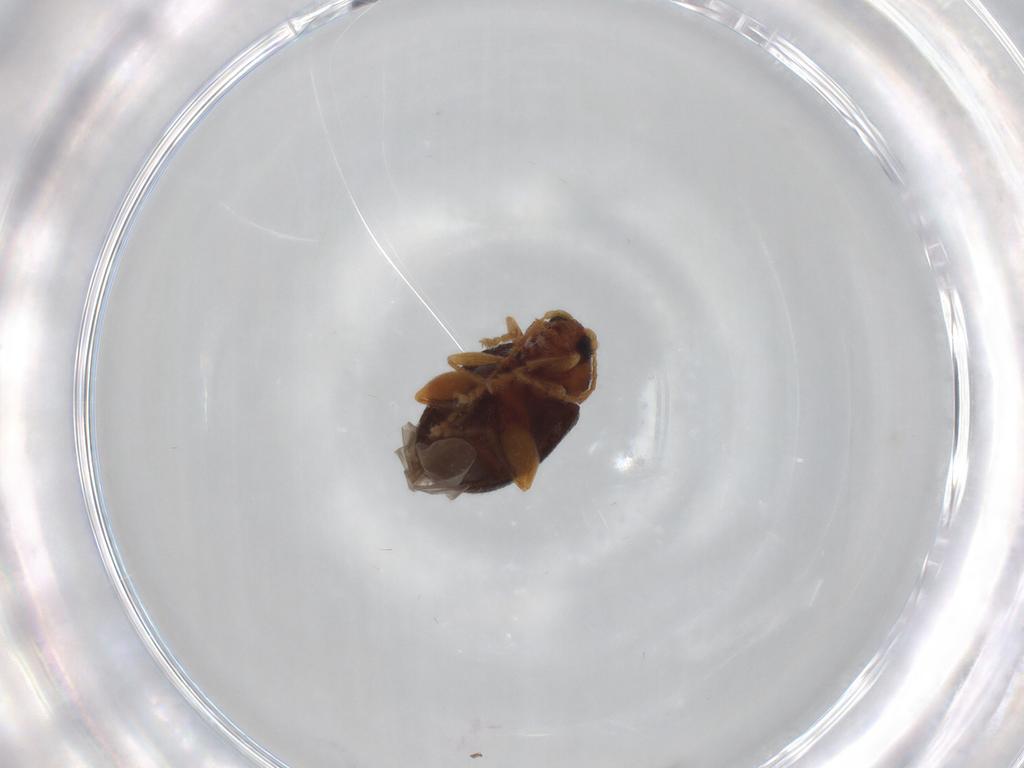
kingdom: Animalia
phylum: Arthropoda
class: Insecta
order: Coleoptera
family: Chrysomelidae
